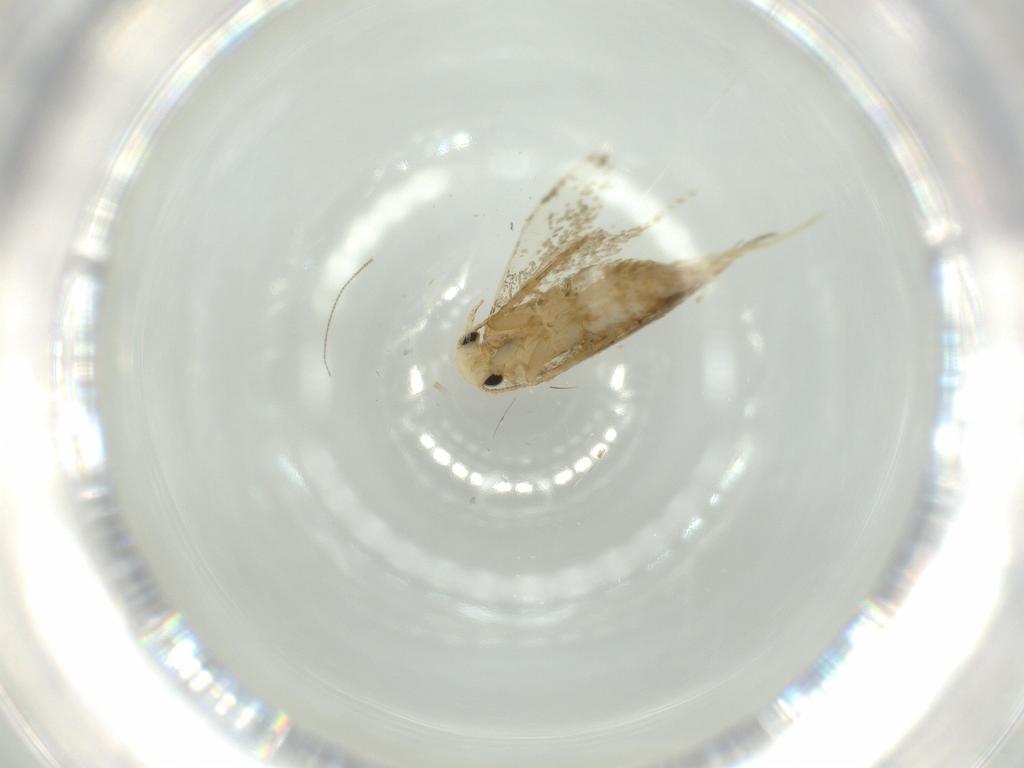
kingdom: Animalia
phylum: Arthropoda
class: Insecta
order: Lepidoptera
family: Tineidae
